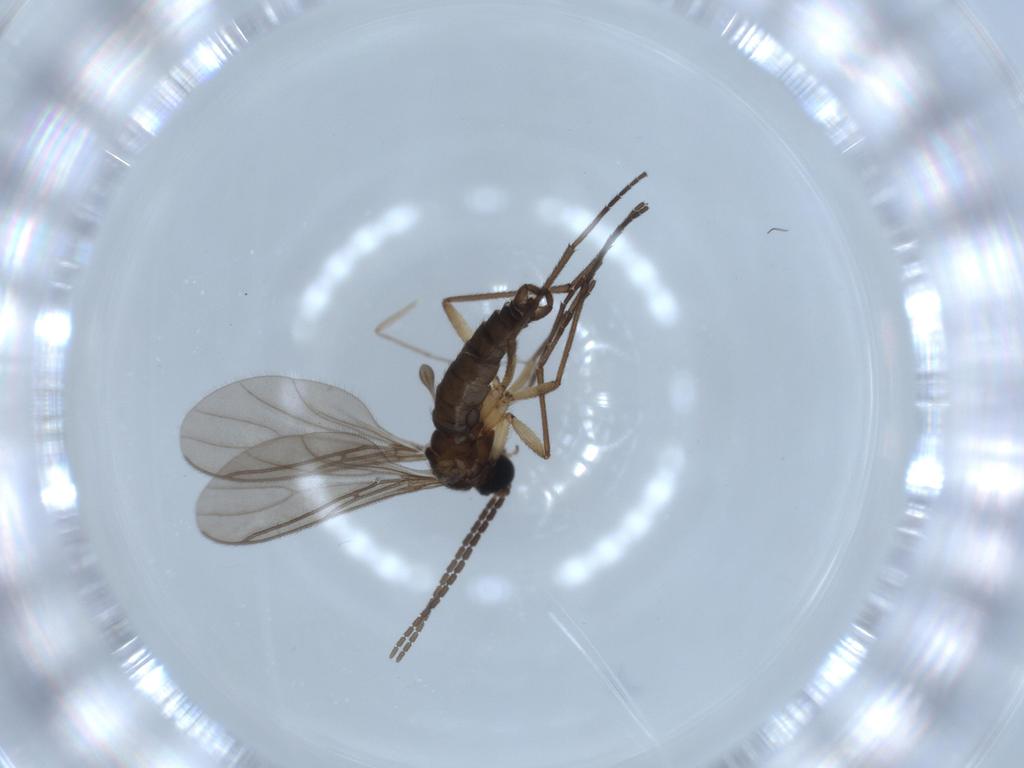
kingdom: Animalia
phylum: Arthropoda
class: Insecta
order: Diptera
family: Sciaridae
